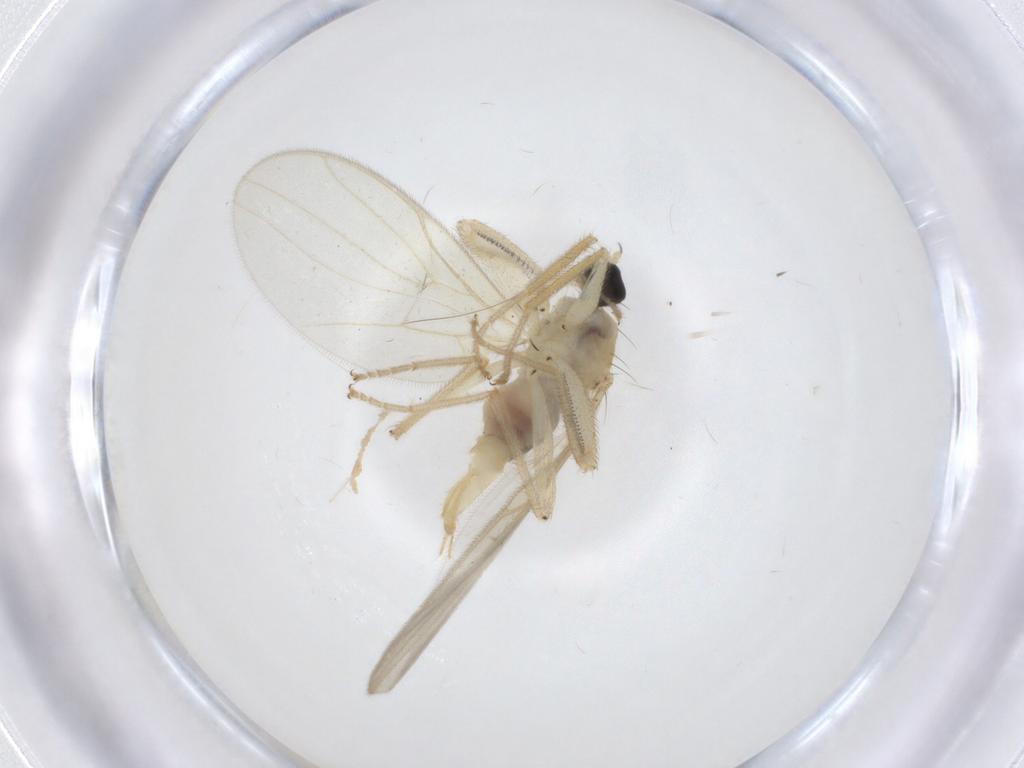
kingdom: Animalia
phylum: Arthropoda
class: Insecta
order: Diptera
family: Chironomidae
